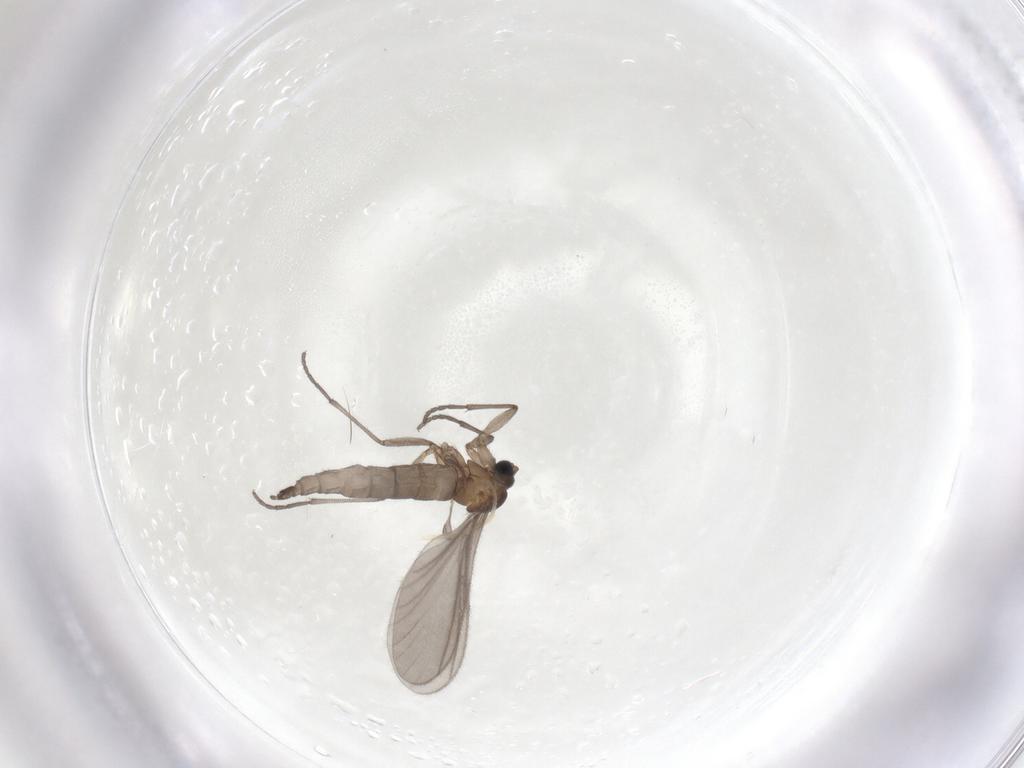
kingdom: Animalia
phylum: Arthropoda
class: Insecta
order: Diptera
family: Sciaridae
